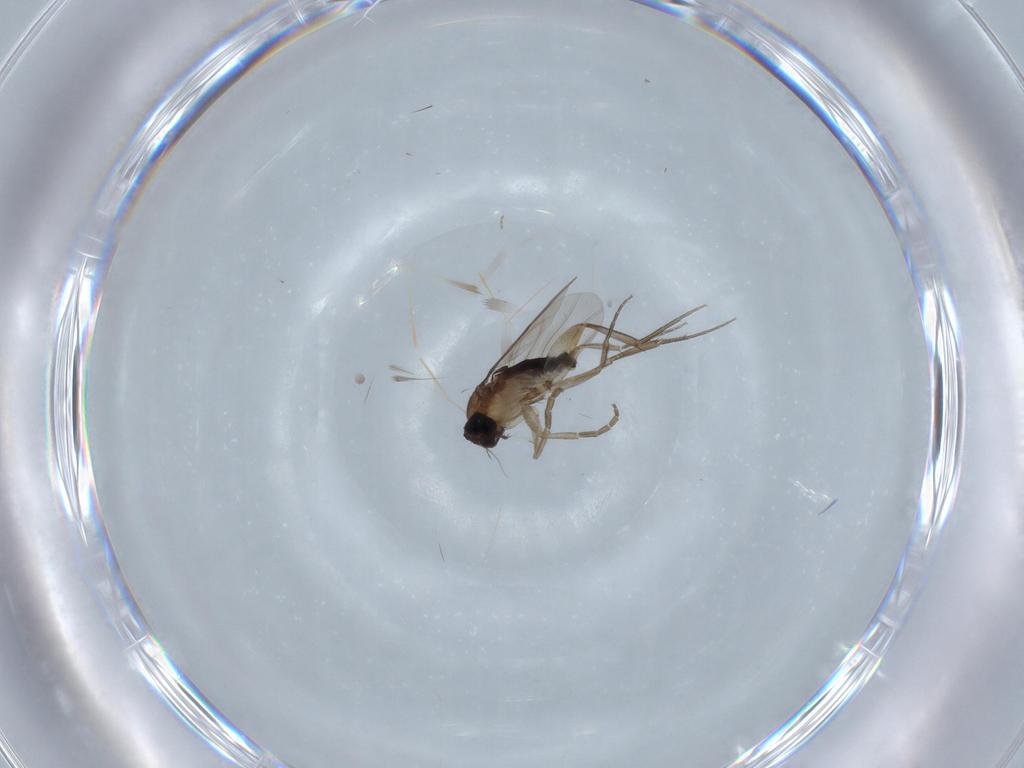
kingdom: Animalia
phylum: Arthropoda
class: Insecta
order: Diptera
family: Phoridae
